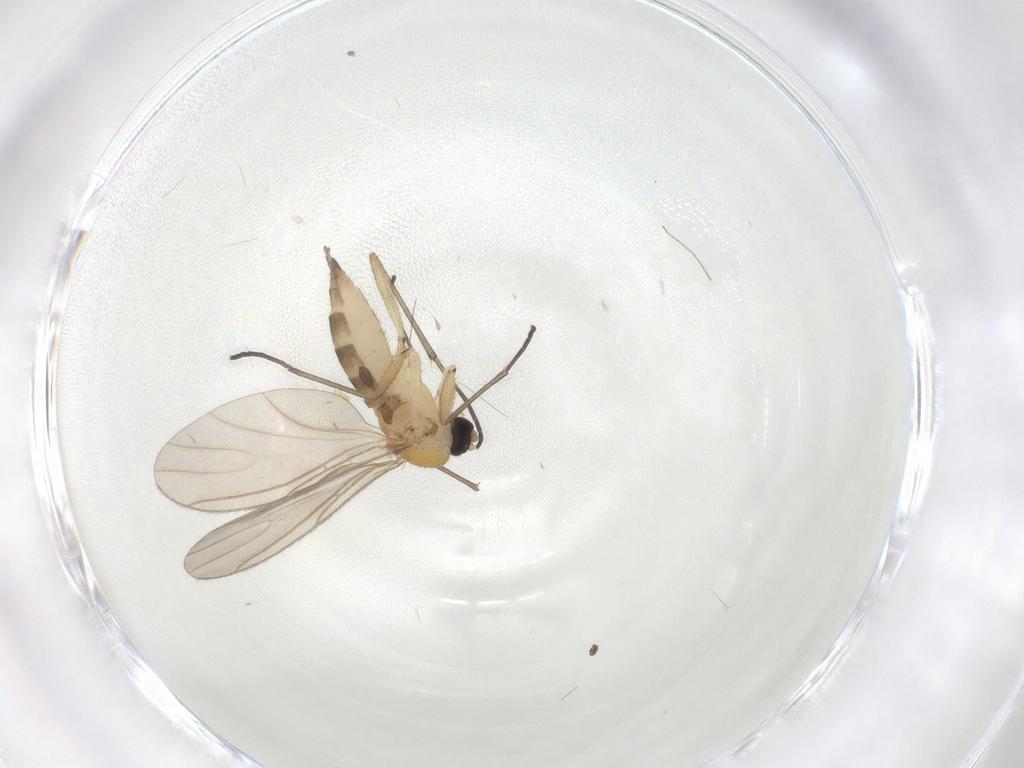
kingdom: Animalia
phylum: Arthropoda
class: Insecta
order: Diptera
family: Sciaridae
